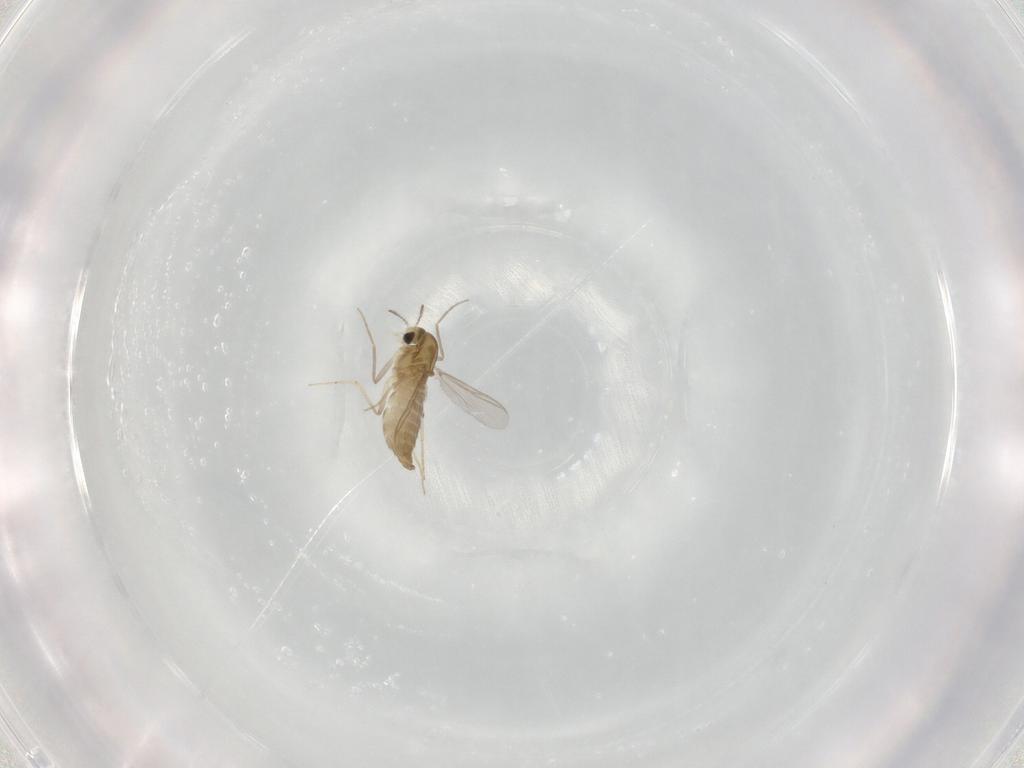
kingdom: Animalia
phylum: Arthropoda
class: Insecta
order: Diptera
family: Chironomidae
